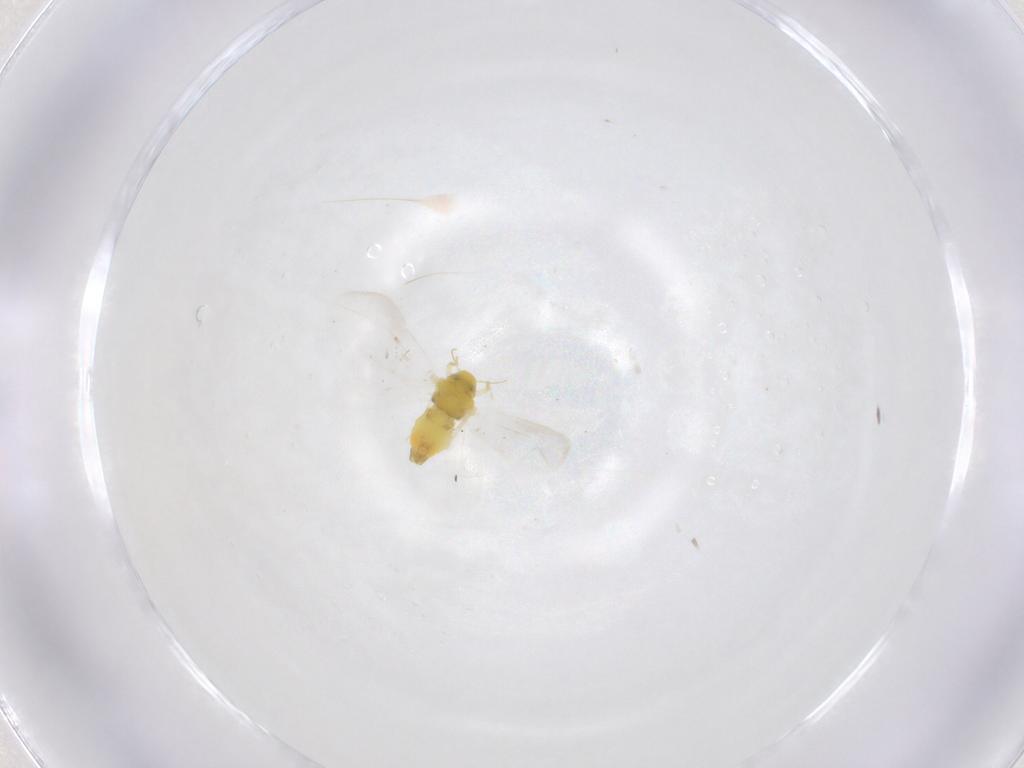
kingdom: Animalia
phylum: Arthropoda
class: Insecta
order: Hemiptera
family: Aleyrodidae
